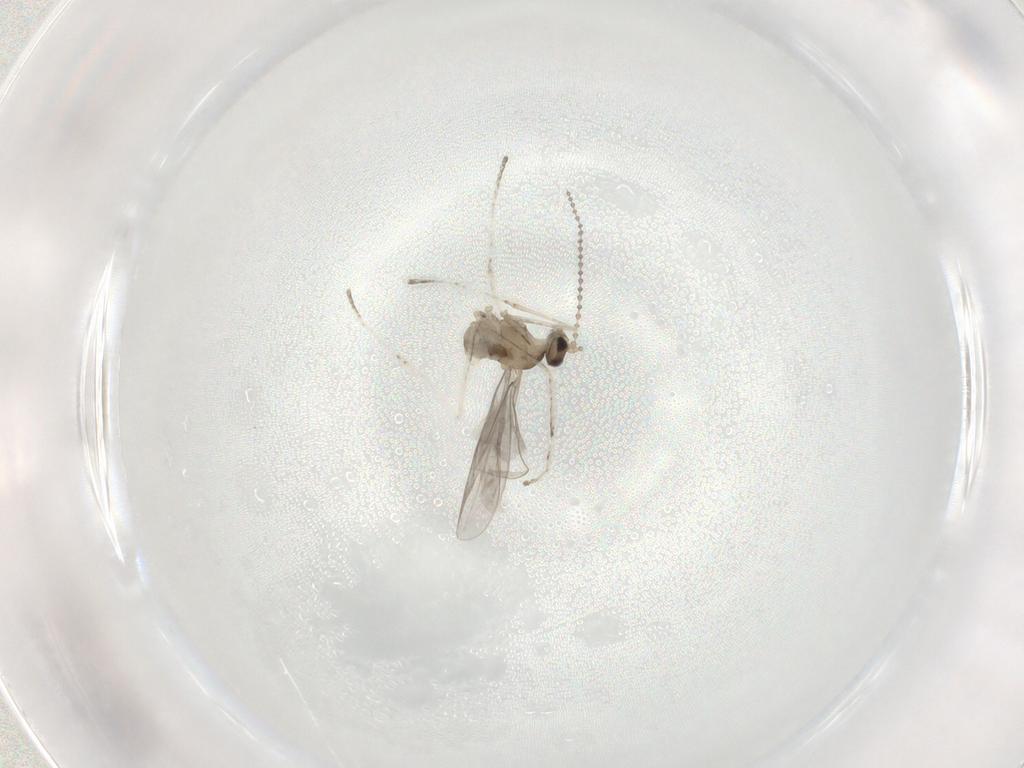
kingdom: Animalia
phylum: Arthropoda
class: Insecta
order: Diptera
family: Cecidomyiidae
